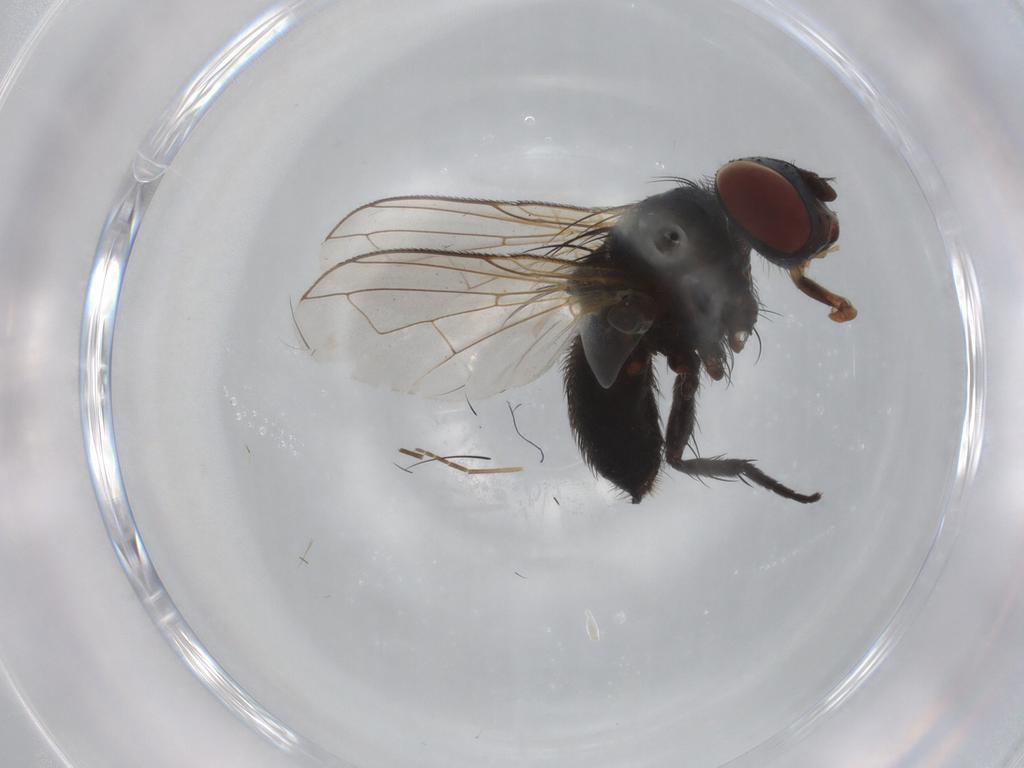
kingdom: Animalia
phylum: Arthropoda
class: Insecta
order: Diptera
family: Tachinidae
